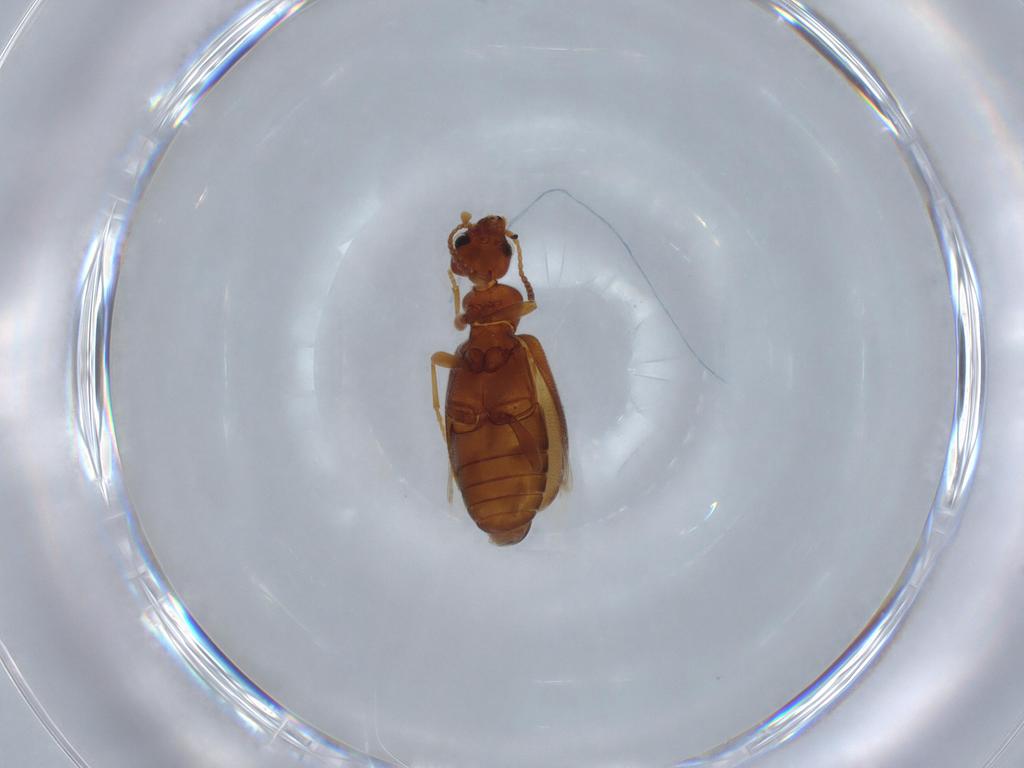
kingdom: Animalia
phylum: Arthropoda
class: Insecta
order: Coleoptera
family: Anthicidae
